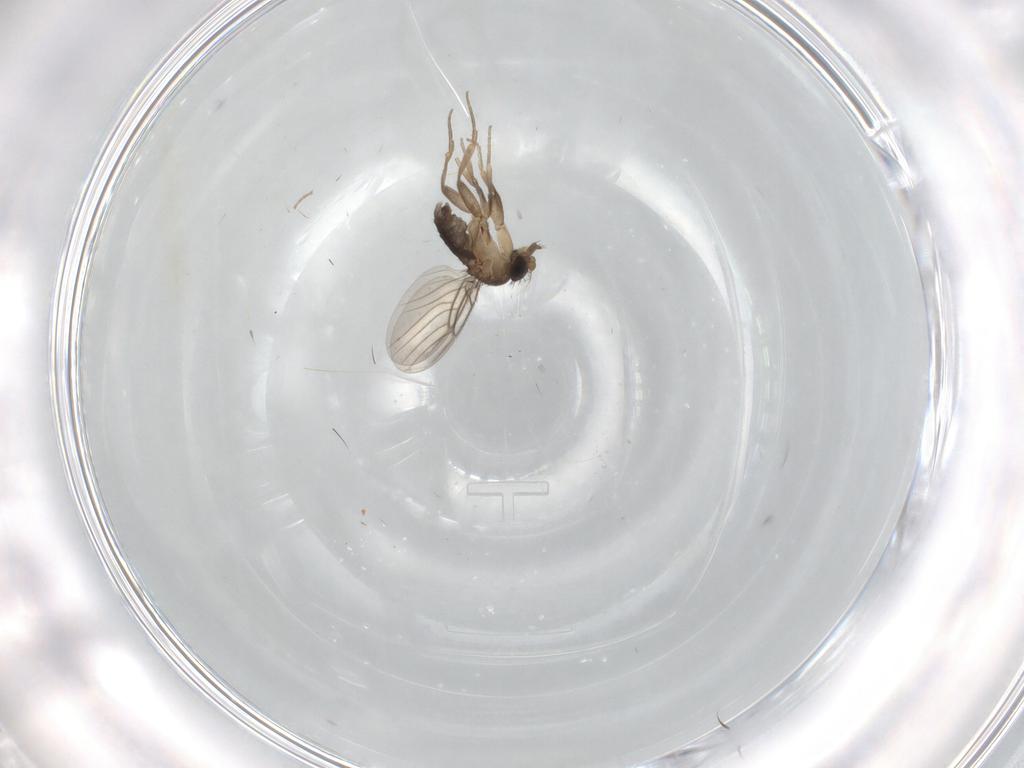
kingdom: Animalia
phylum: Arthropoda
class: Insecta
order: Diptera
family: Phoridae
